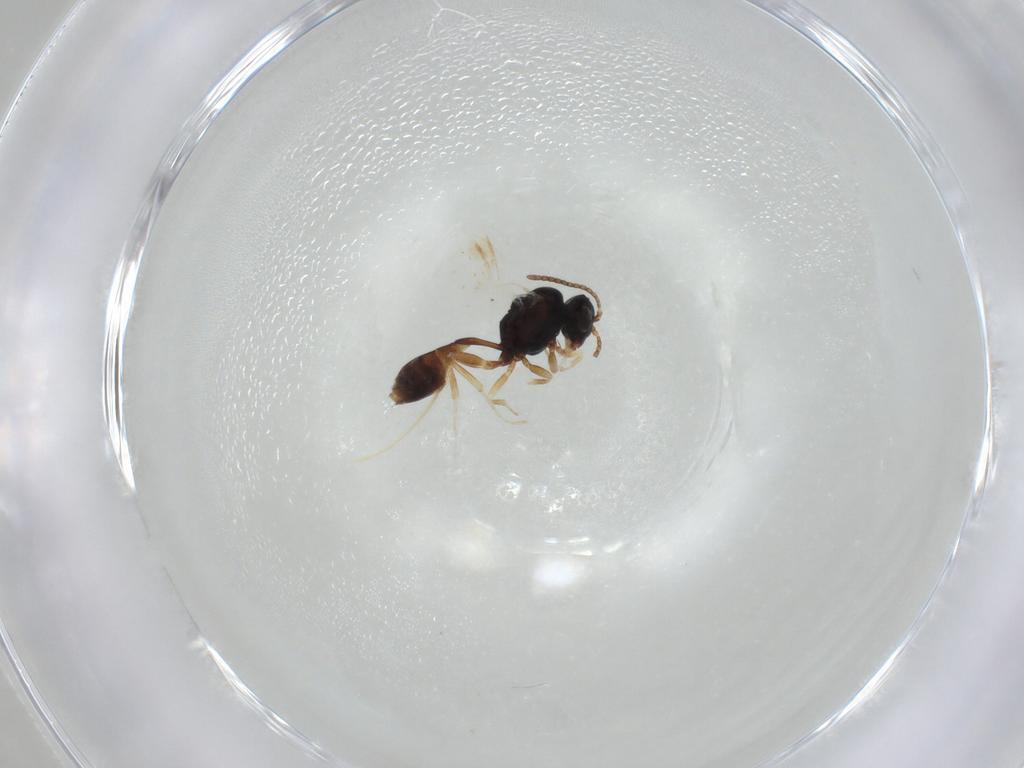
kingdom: Animalia
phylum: Arthropoda
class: Insecta
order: Hymenoptera
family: Ichneumonidae
